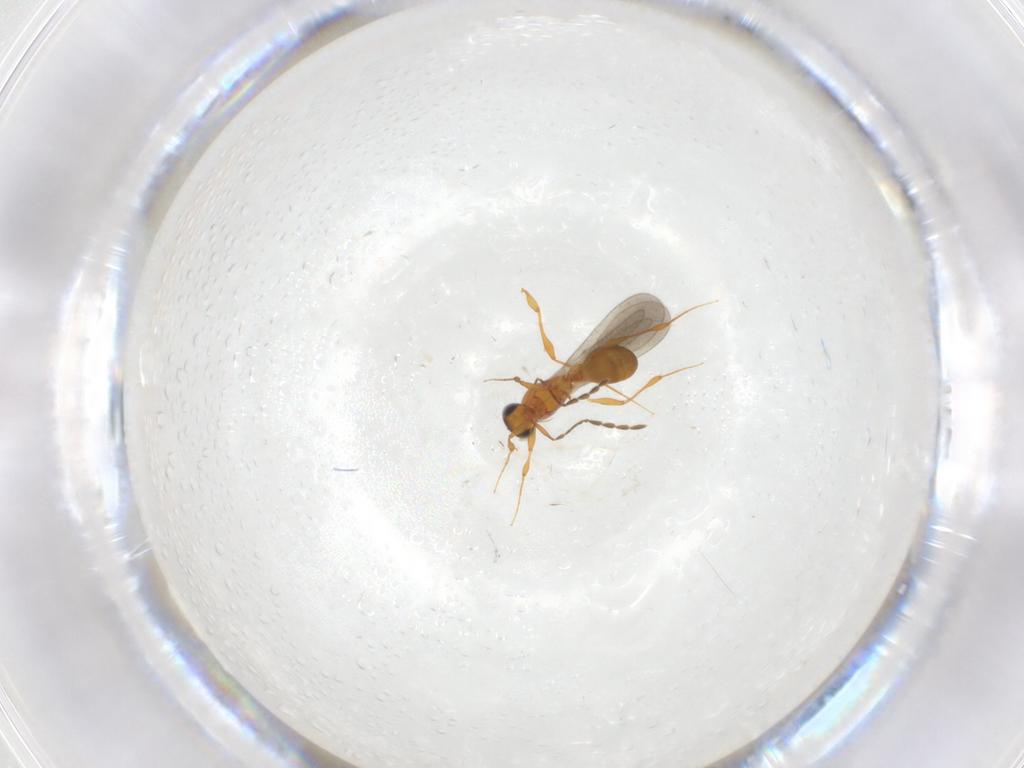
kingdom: Animalia
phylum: Arthropoda
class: Insecta
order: Hymenoptera
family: Platygastridae
